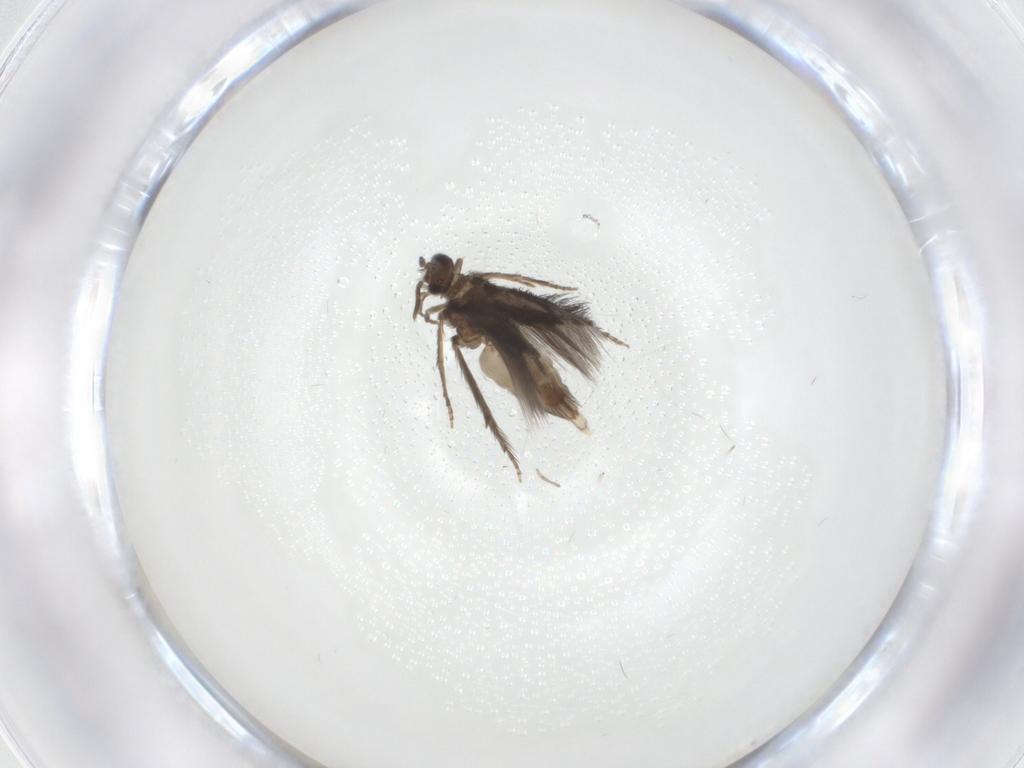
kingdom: Animalia
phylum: Arthropoda
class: Insecta
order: Trichoptera
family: Hydroptilidae
